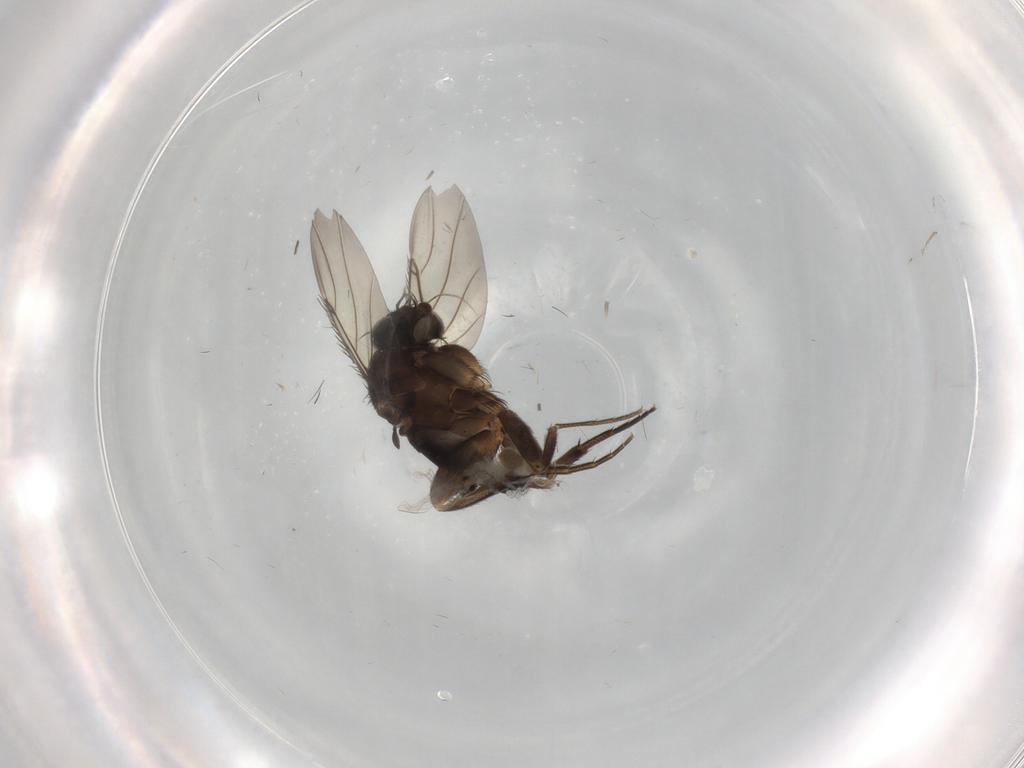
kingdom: Animalia
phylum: Arthropoda
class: Insecta
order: Diptera
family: Phoridae
